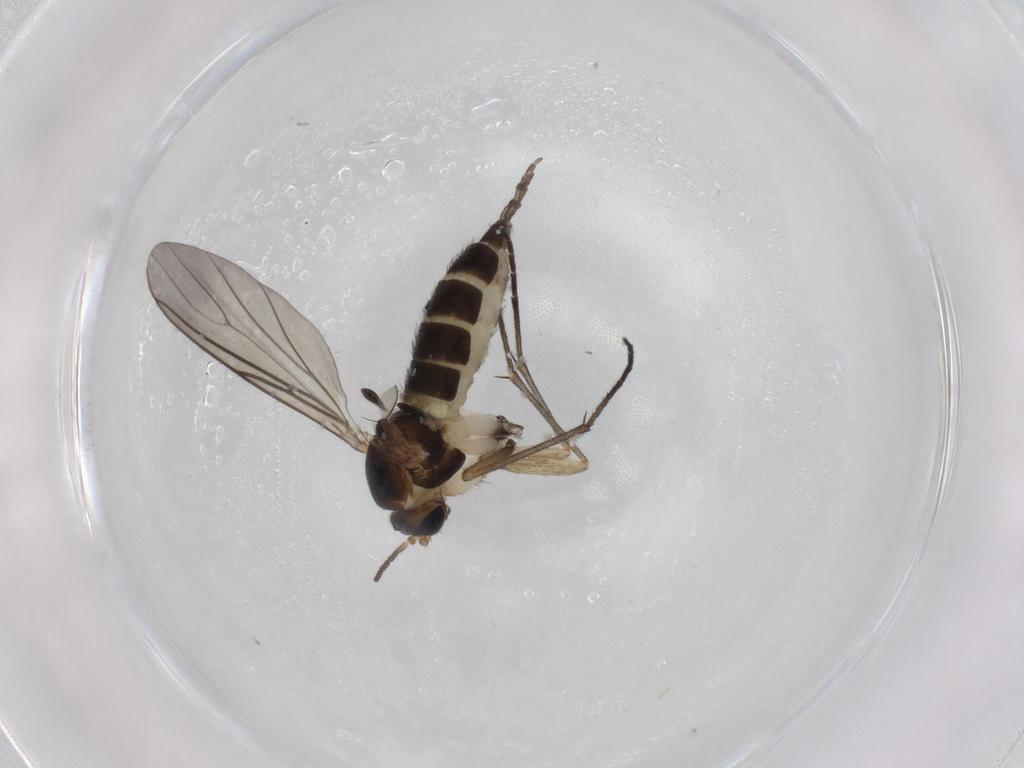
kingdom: Animalia
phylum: Arthropoda
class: Insecta
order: Diptera
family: Sciaridae
